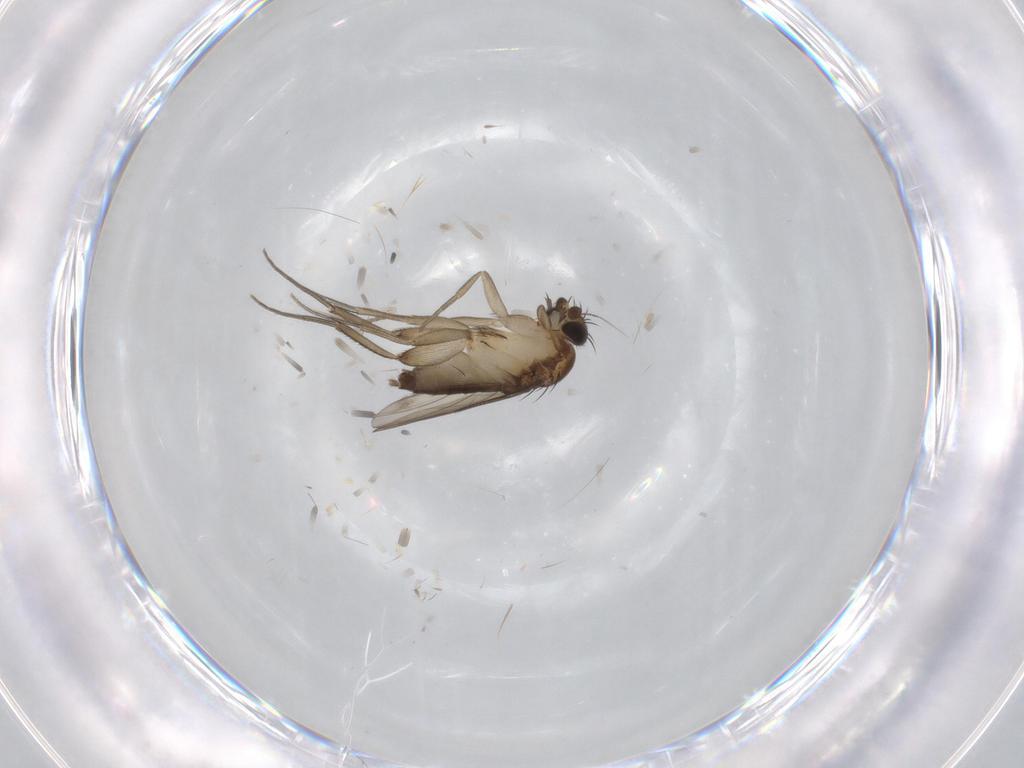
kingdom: Animalia
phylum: Arthropoda
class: Insecta
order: Diptera
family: Phoridae
